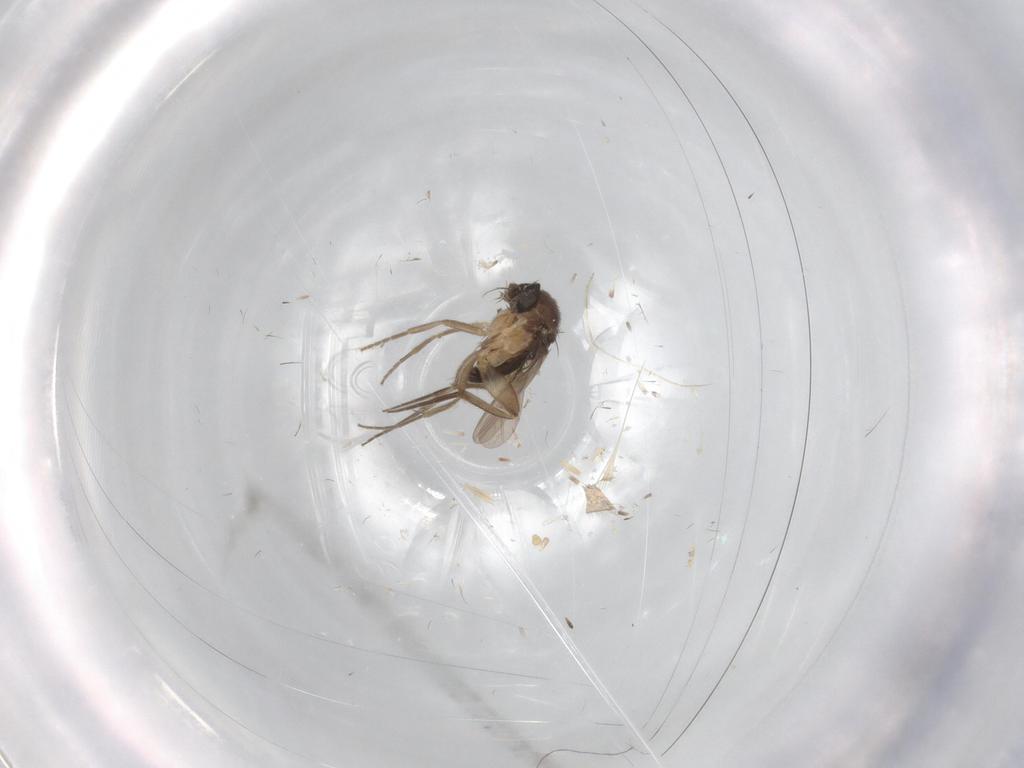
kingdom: Animalia
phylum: Arthropoda
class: Insecta
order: Diptera
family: Phoridae
